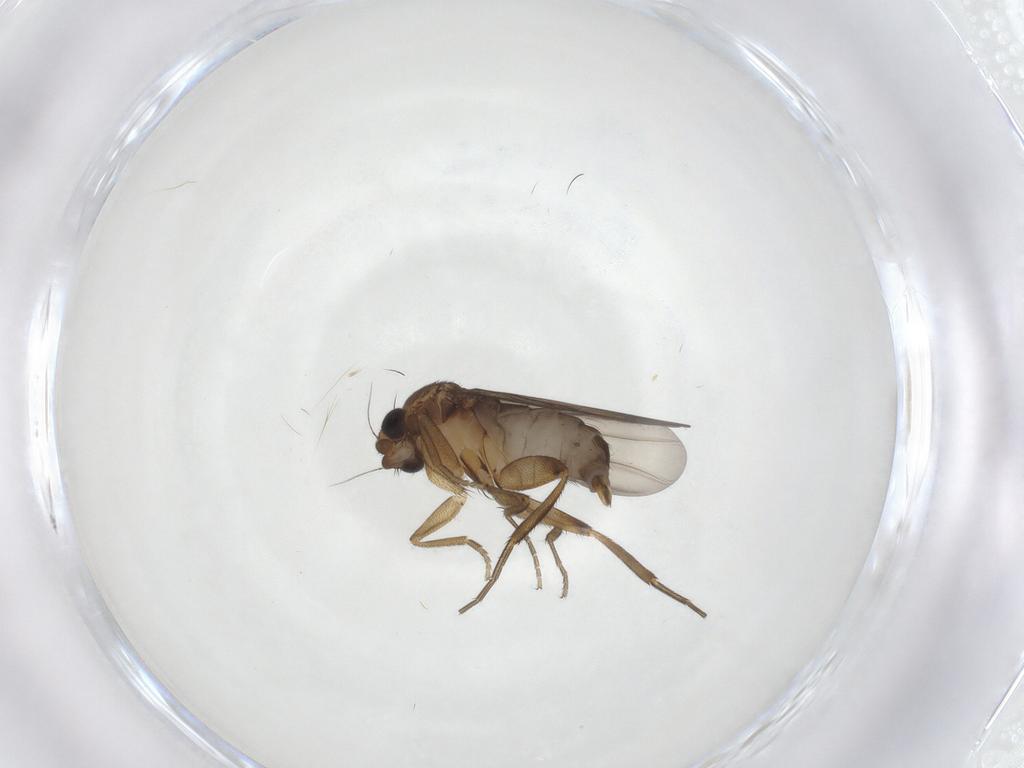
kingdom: Animalia
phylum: Arthropoda
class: Insecta
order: Diptera
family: Phoridae
